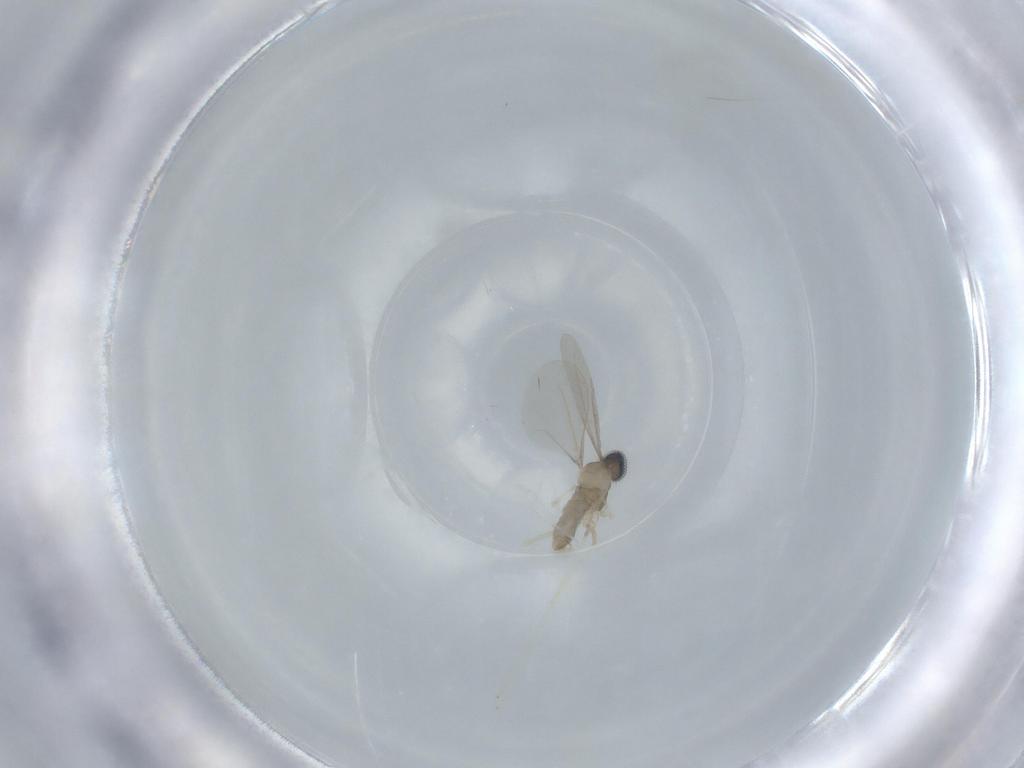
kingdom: Animalia
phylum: Arthropoda
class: Insecta
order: Diptera
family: Cecidomyiidae
